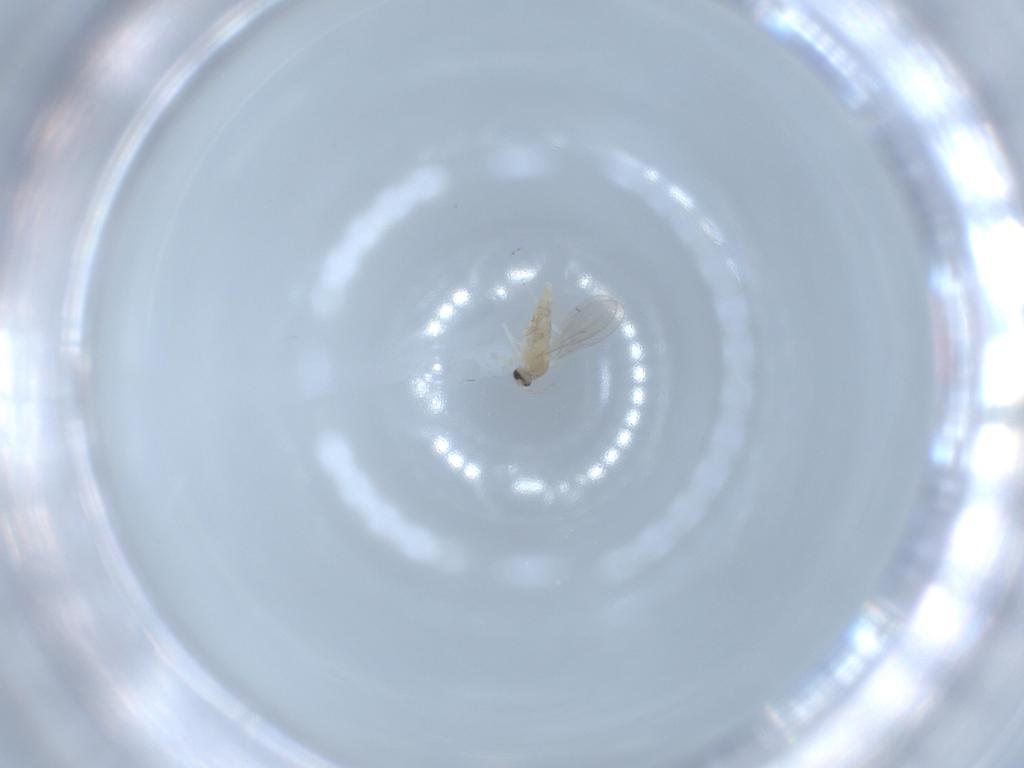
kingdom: Animalia
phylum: Arthropoda
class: Insecta
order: Diptera
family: Cecidomyiidae
